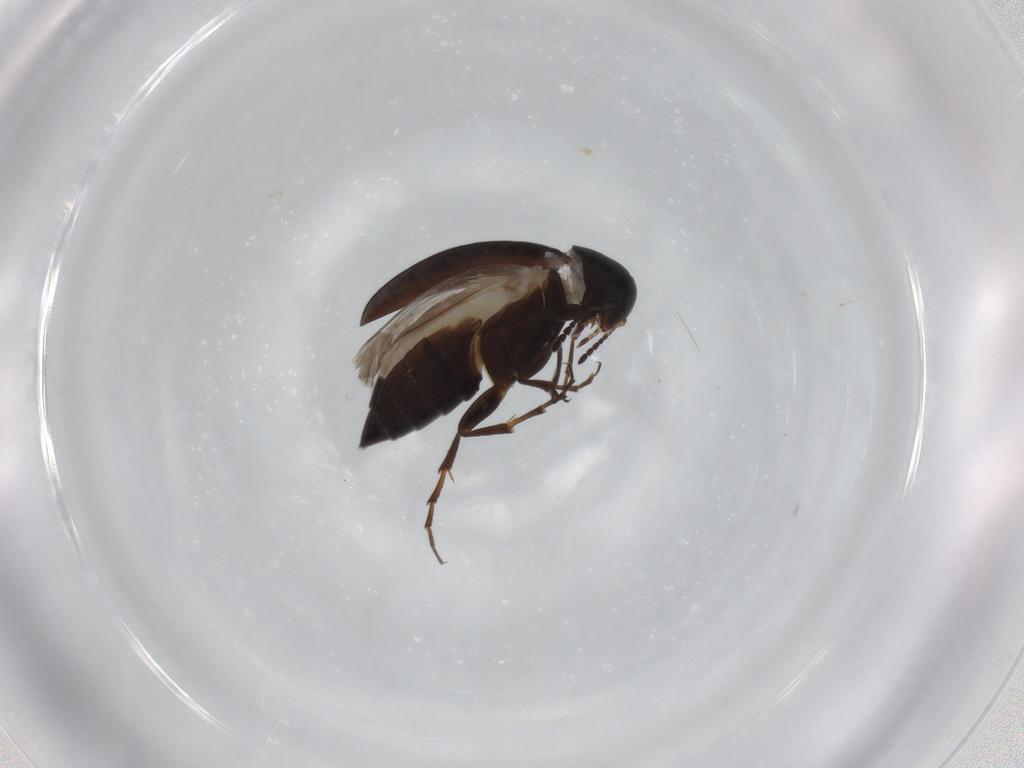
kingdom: Animalia
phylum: Arthropoda
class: Insecta
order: Coleoptera
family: Scraptiidae
